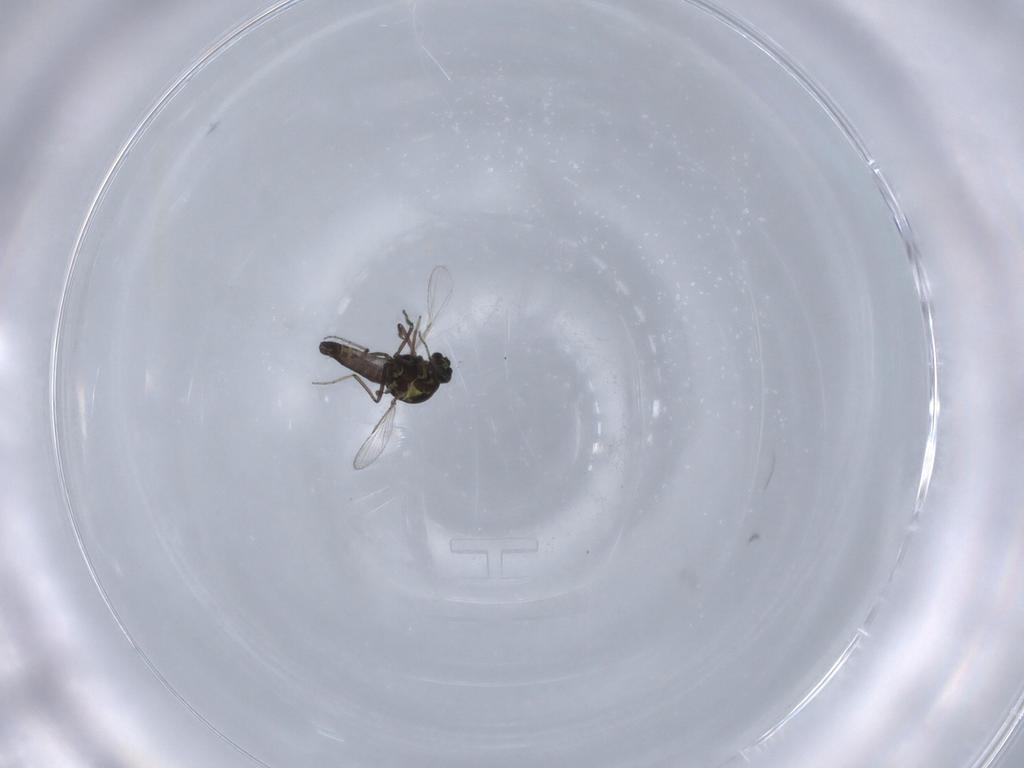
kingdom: Animalia
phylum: Arthropoda
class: Insecta
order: Diptera
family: Ceratopogonidae
